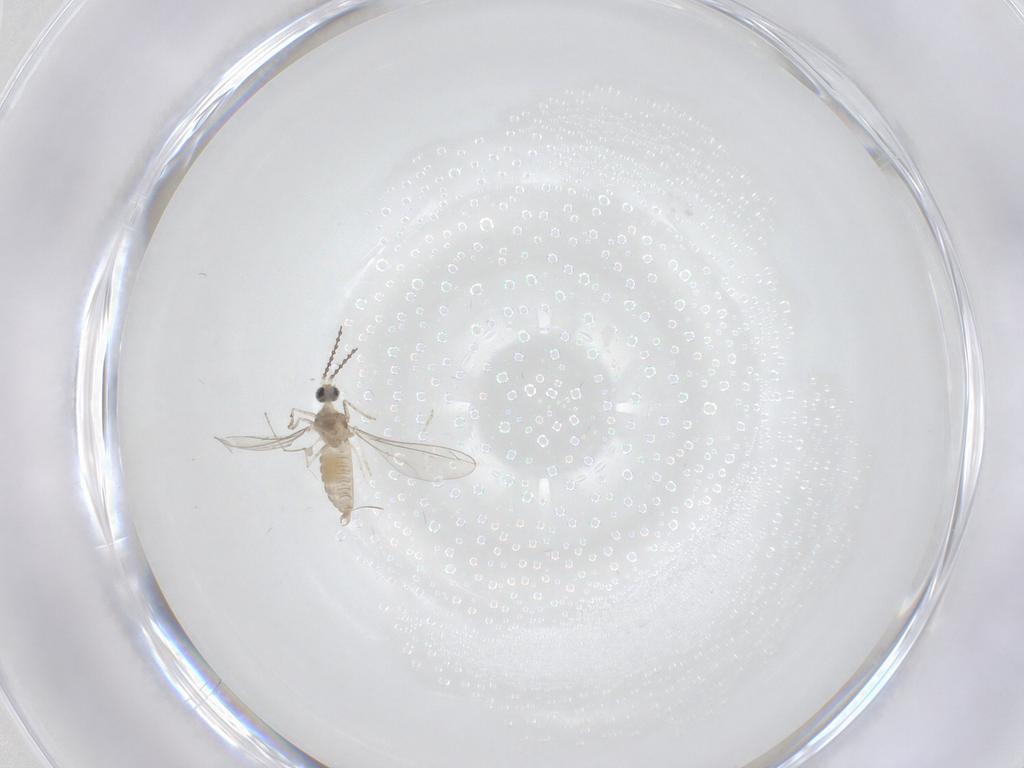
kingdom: Animalia
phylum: Arthropoda
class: Insecta
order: Diptera
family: Cecidomyiidae
